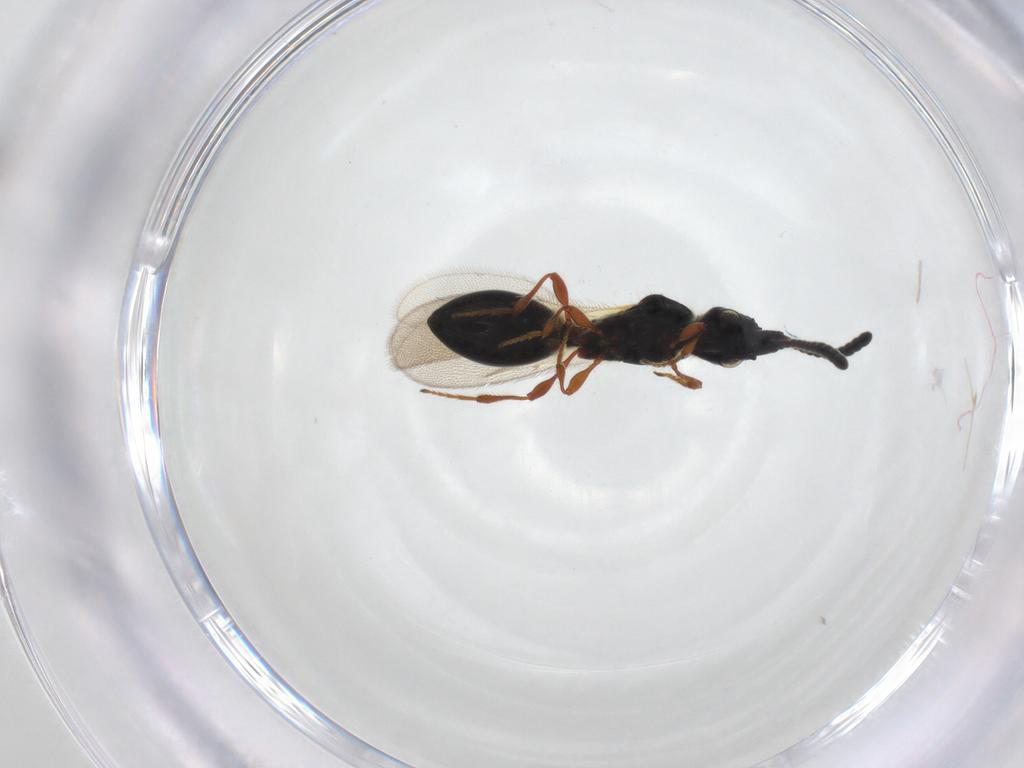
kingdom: Animalia
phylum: Arthropoda
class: Insecta
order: Hymenoptera
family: Diapriidae
